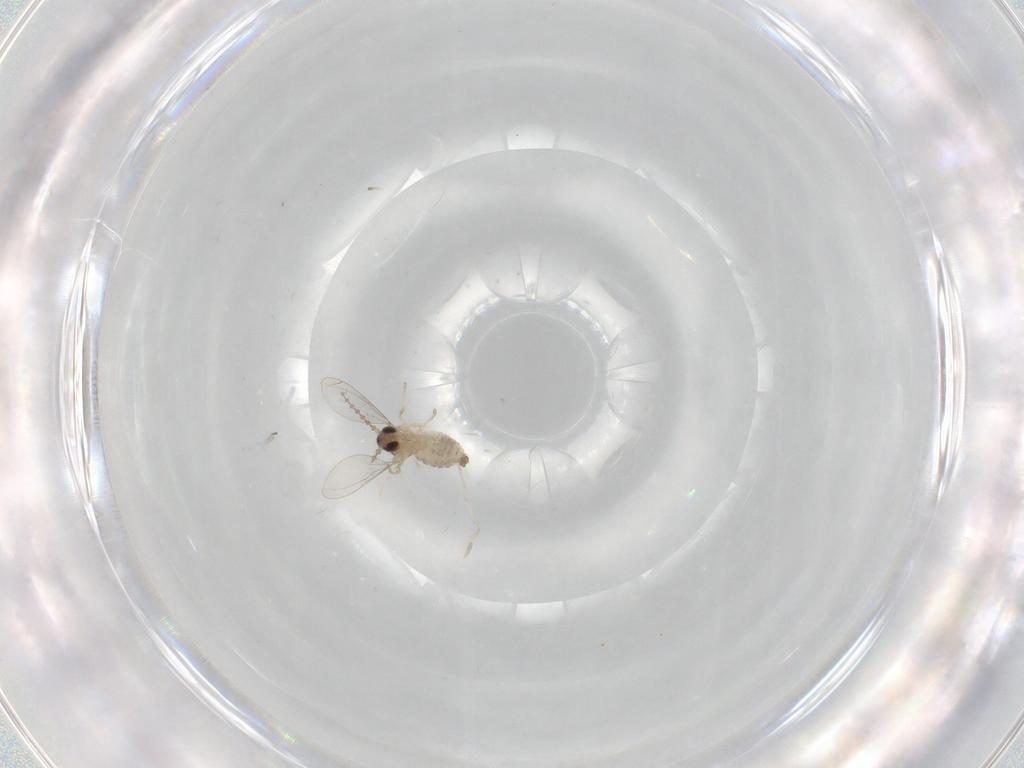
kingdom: Animalia
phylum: Arthropoda
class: Insecta
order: Diptera
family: Cecidomyiidae
